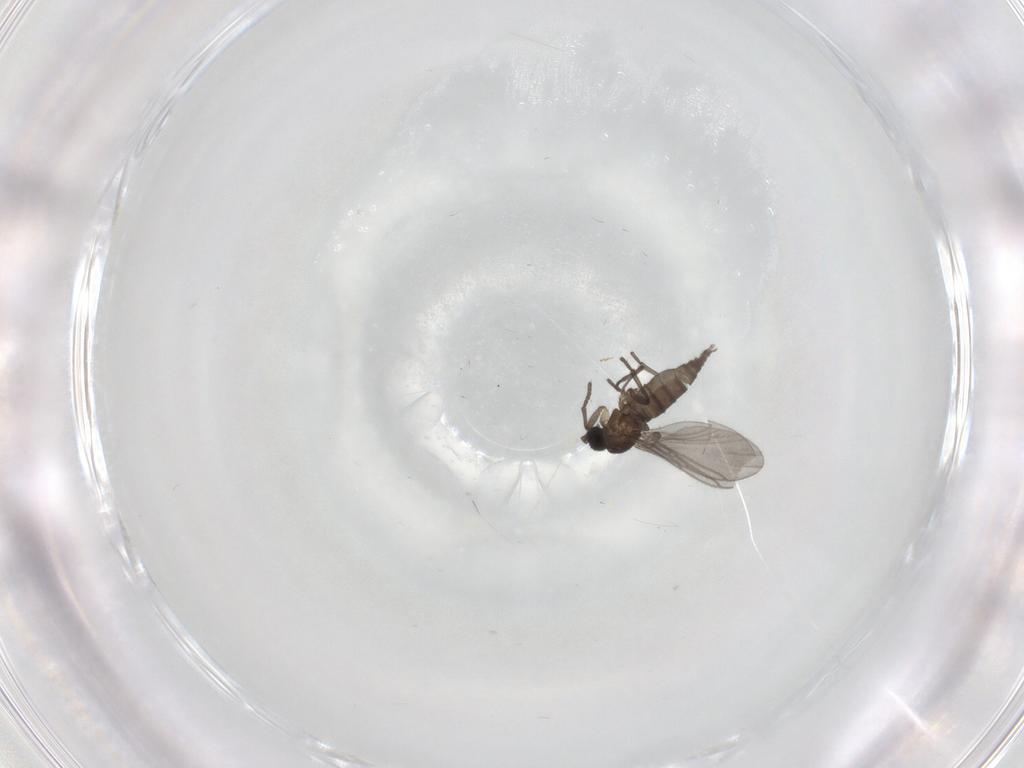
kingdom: Animalia
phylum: Arthropoda
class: Insecta
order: Diptera
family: Sciaridae
